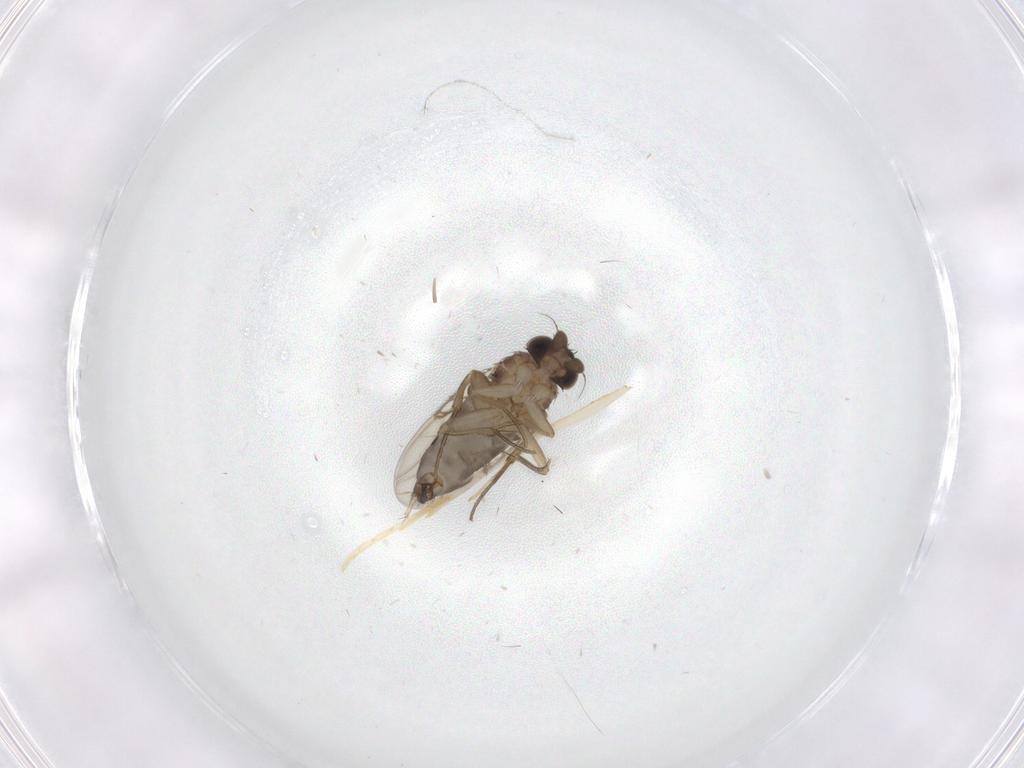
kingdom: Animalia
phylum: Arthropoda
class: Insecta
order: Diptera
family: Phoridae
